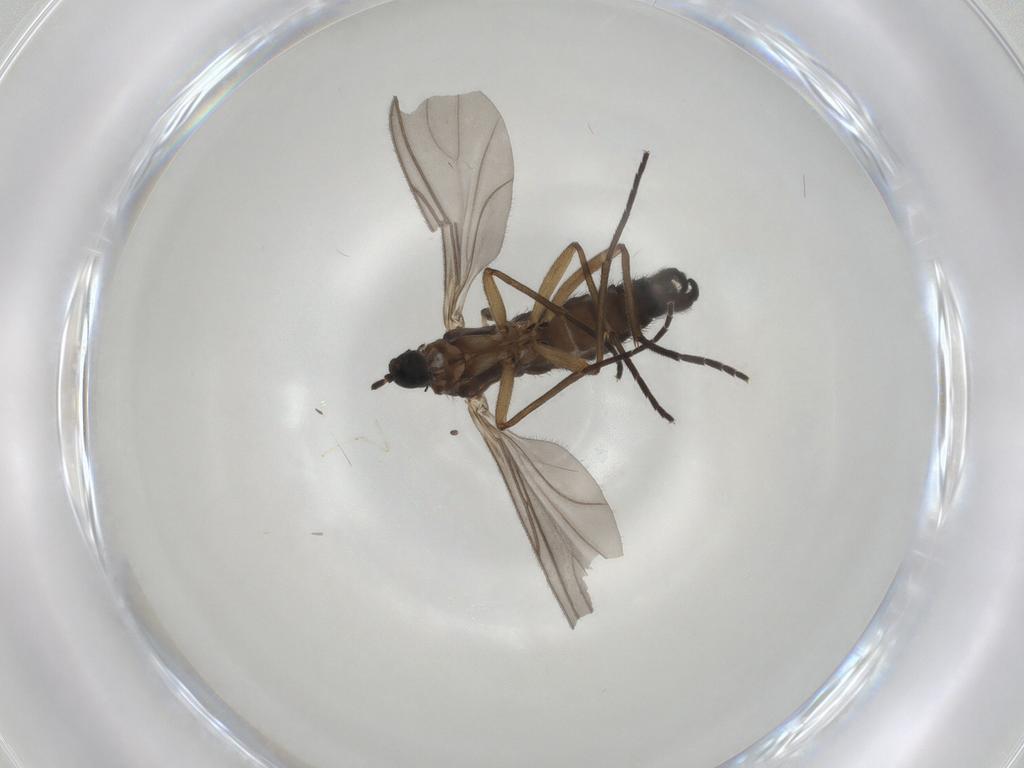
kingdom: Animalia
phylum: Arthropoda
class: Insecta
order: Diptera
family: Sciaridae
